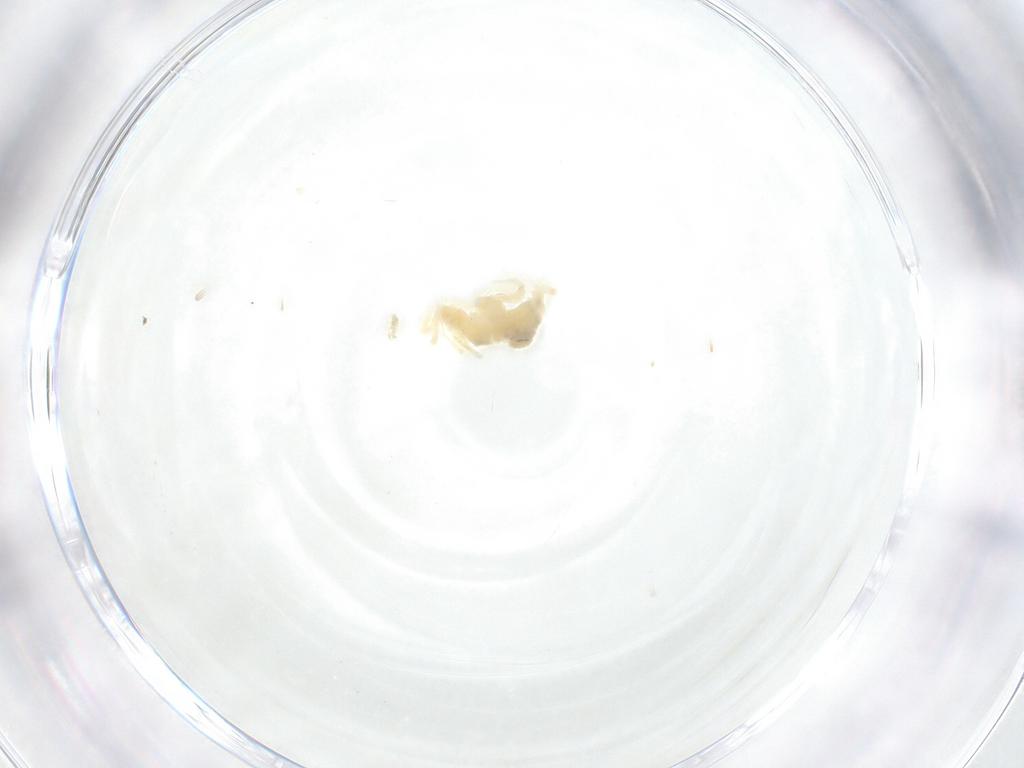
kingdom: Animalia
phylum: Arthropoda
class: Arachnida
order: Trombidiformes
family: Anystidae
